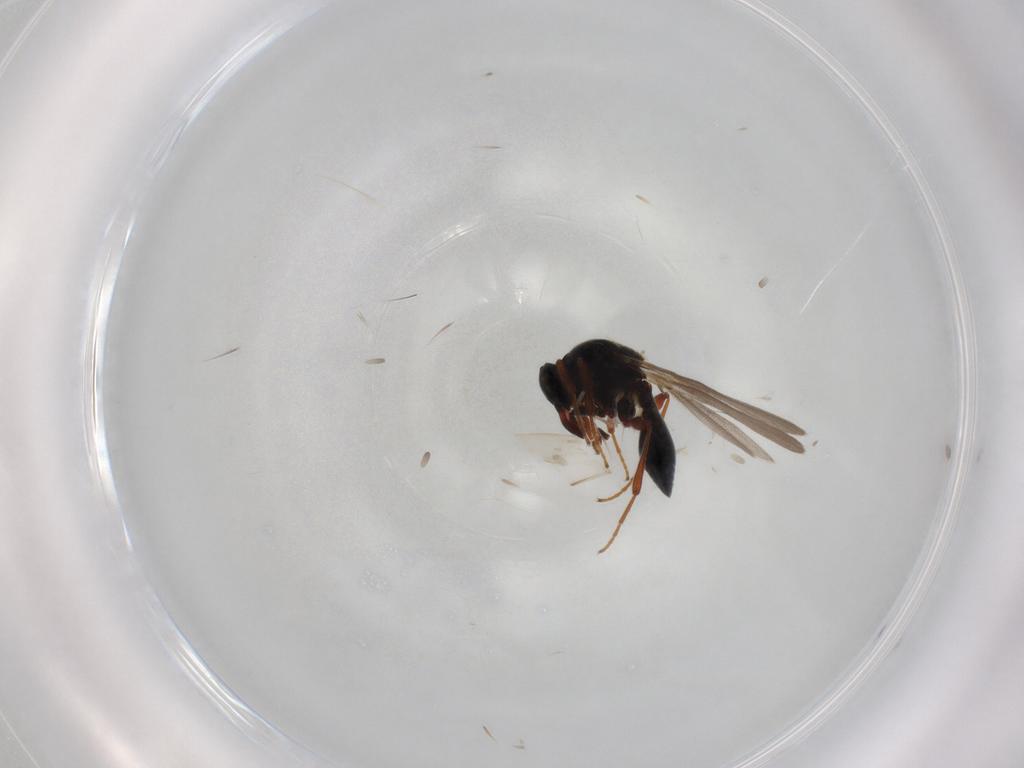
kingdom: Animalia
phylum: Arthropoda
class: Insecta
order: Hymenoptera
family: Platygastridae
